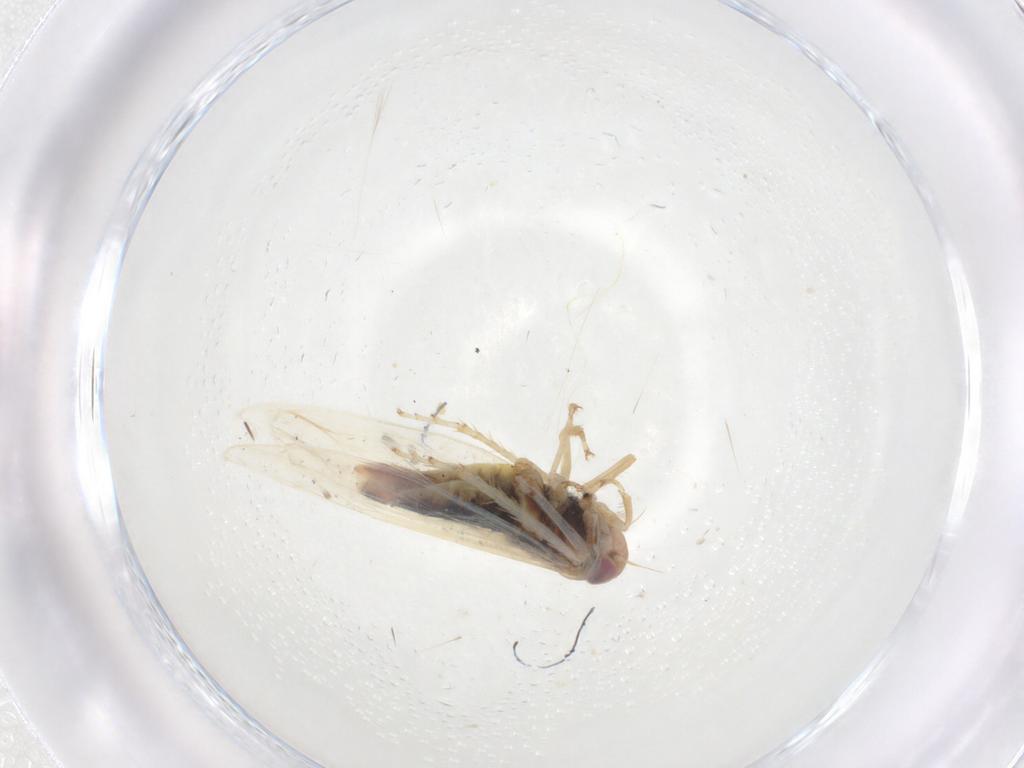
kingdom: Animalia
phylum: Arthropoda
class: Insecta
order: Hemiptera
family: Cicadellidae
